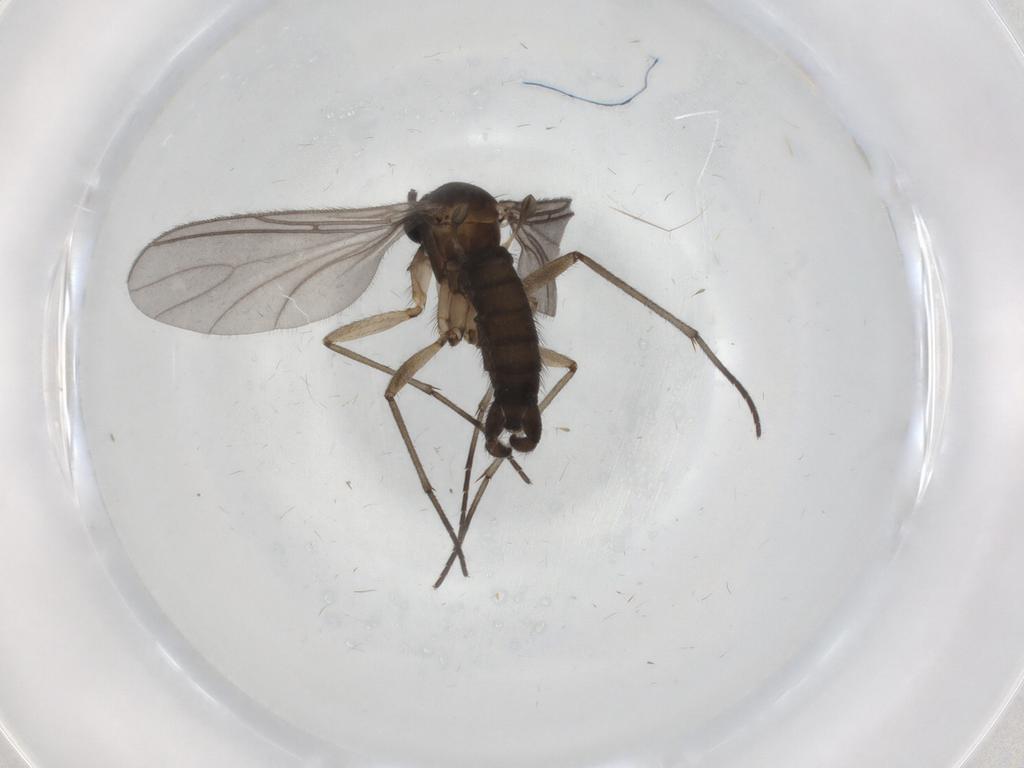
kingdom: Animalia
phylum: Arthropoda
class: Insecta
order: Diptera
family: Sciaridae
